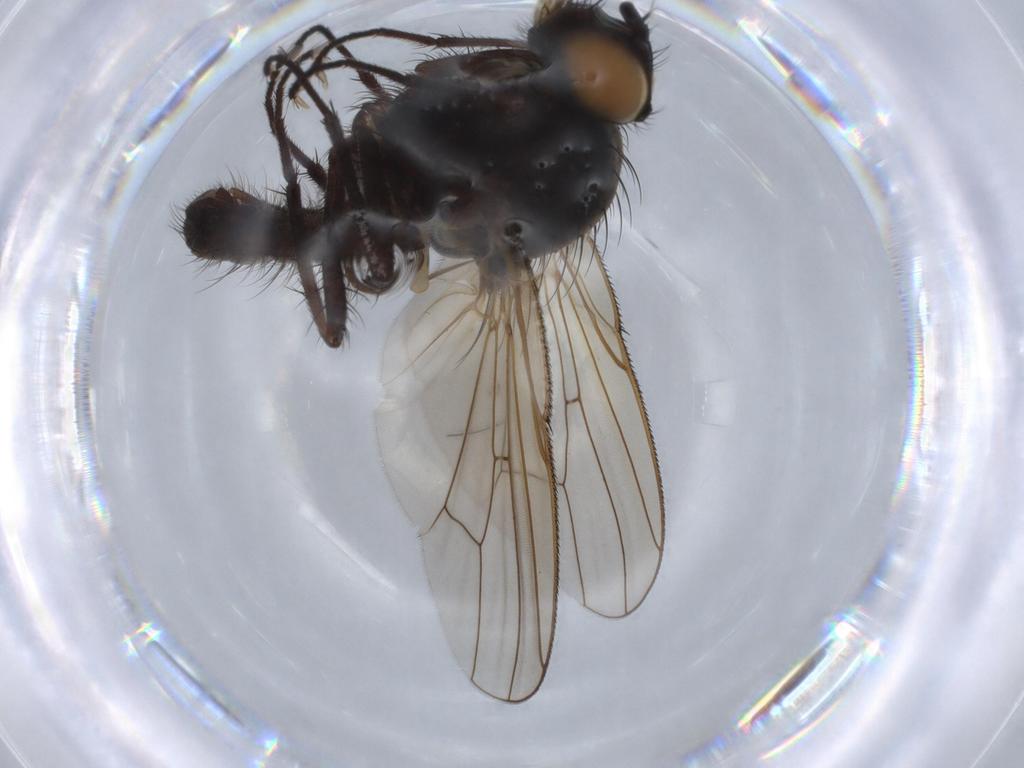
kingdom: Animalia
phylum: Arthropoda
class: Insecta
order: Diptera
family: Anthomyiidae
